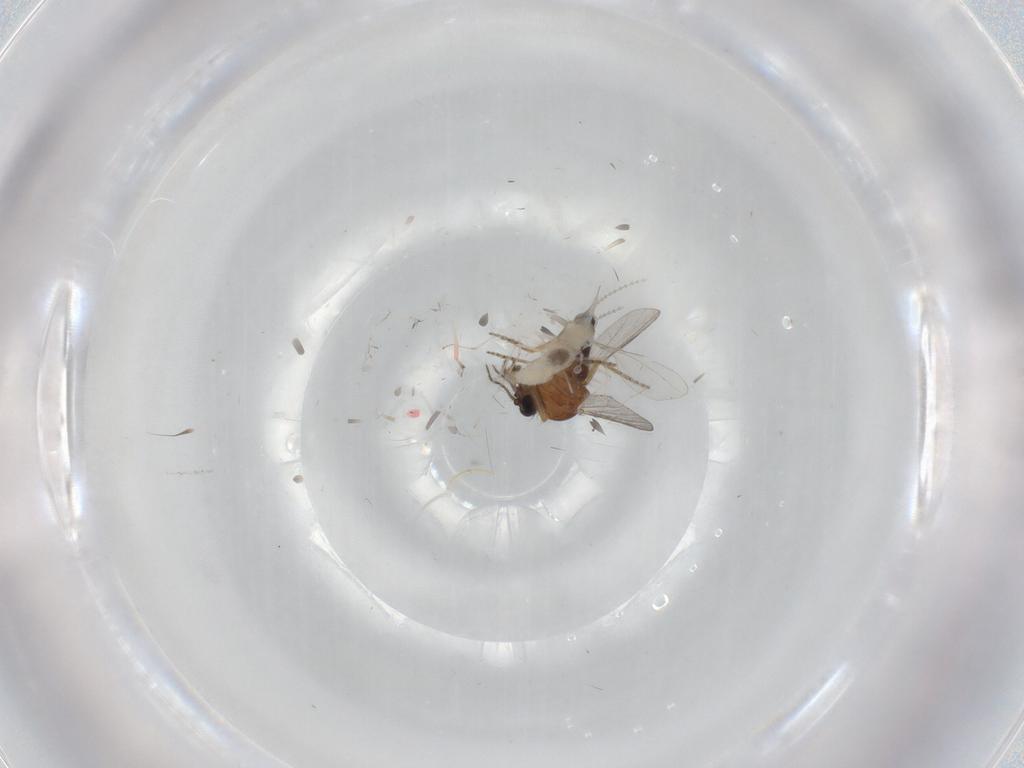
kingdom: Animalia
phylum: Arthropoda
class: Insecta
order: Diptera
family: Ceratopogonidae
